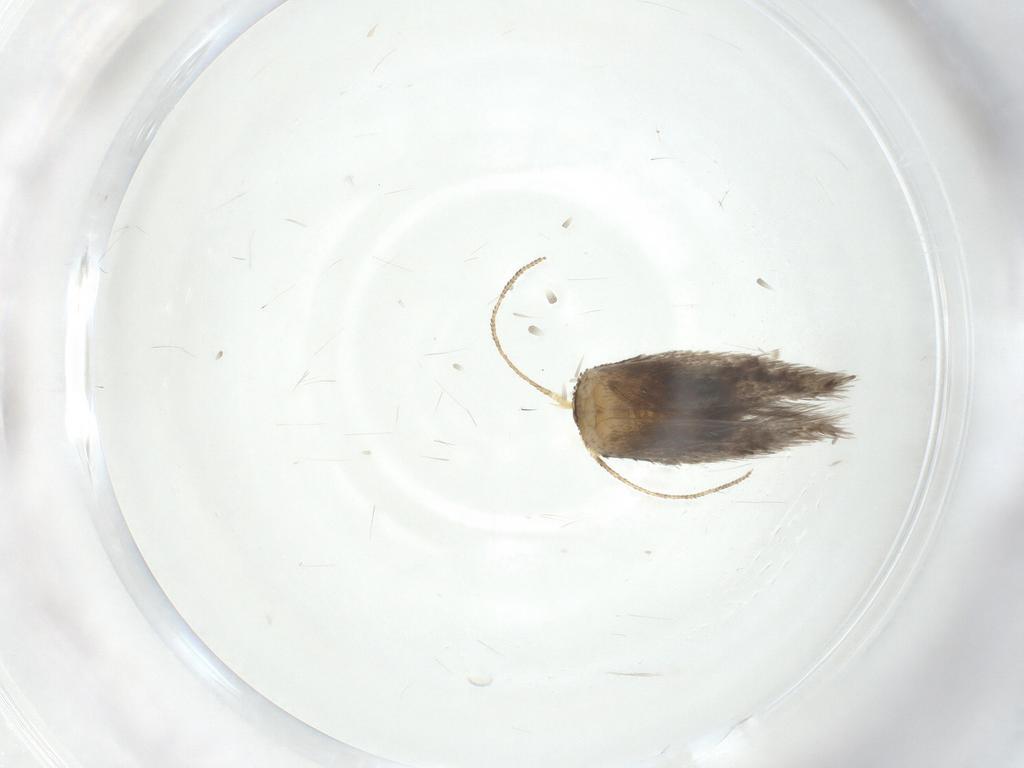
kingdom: Animalia
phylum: Arthropoda
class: Insecta
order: Lepidoptera
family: Nepticulidae
